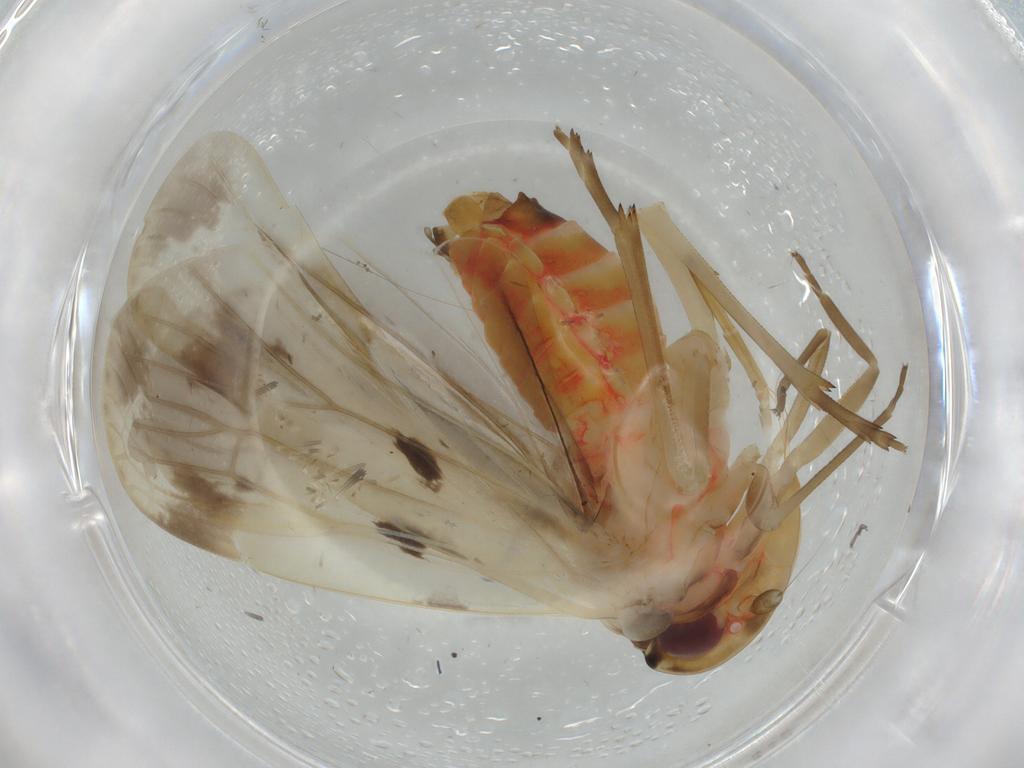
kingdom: Animalia
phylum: Arthropoda
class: Insecta
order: Hemiptera
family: Achilidae
